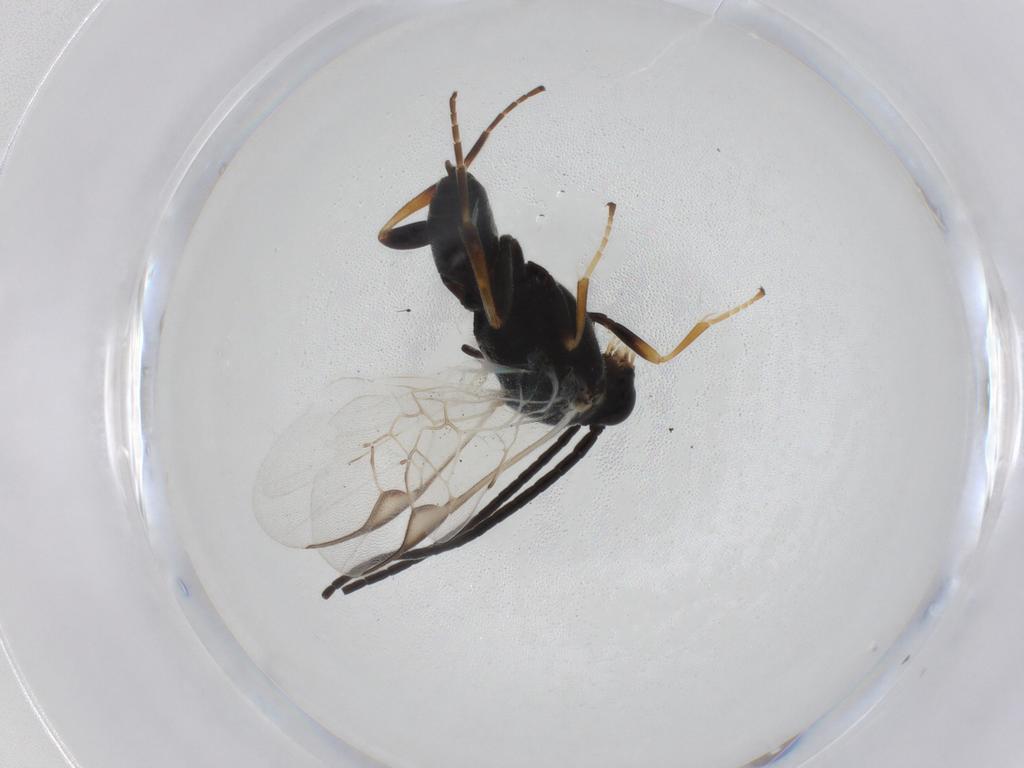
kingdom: Animalia
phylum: Arthropoda
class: Insecta
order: Hymenoptera
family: Braconidae
